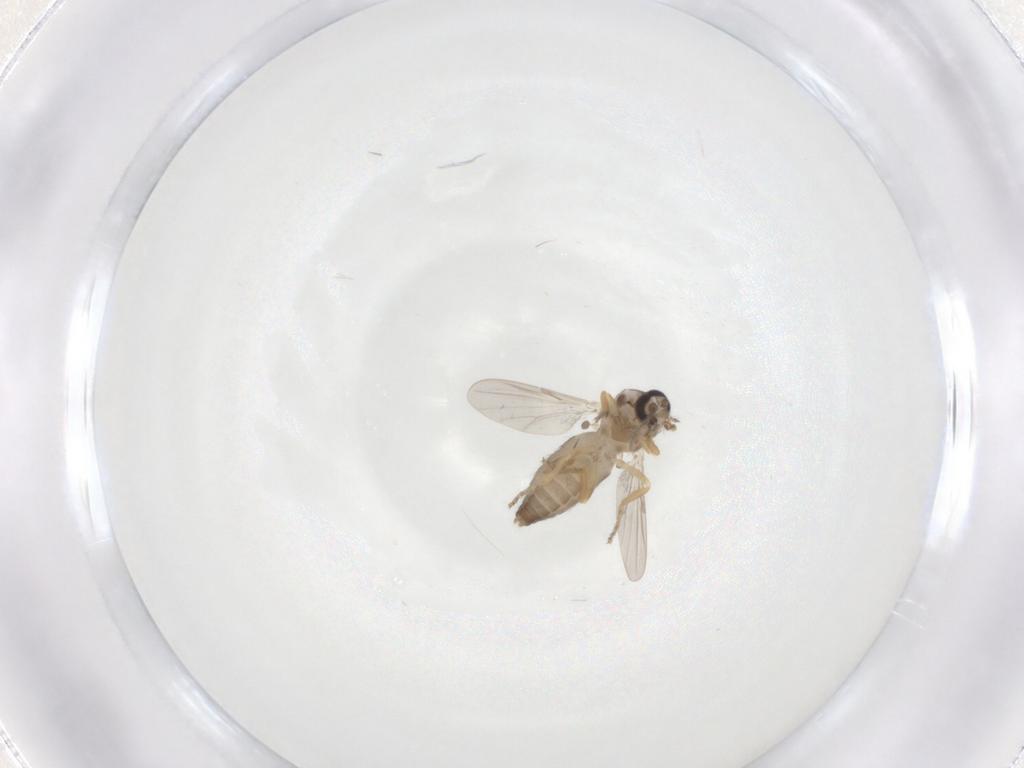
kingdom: Animalia
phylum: Arthropoda
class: Insecta
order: Diptera
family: Ceratopogonidae
